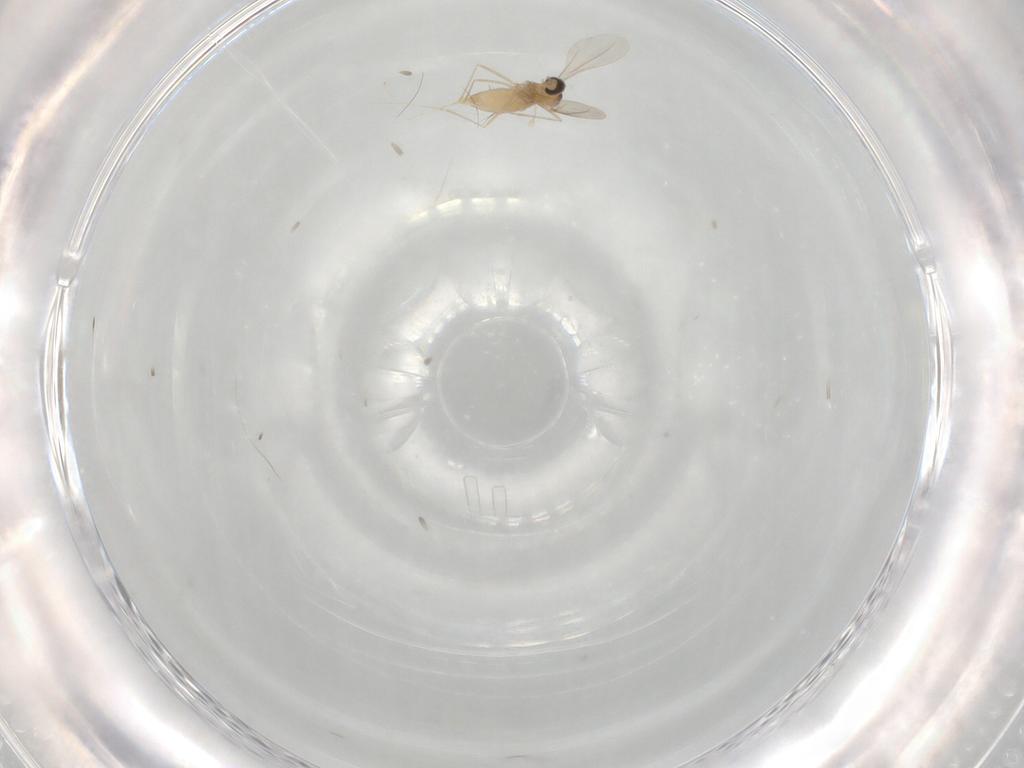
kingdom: Animalia
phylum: Arthropoda
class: Insecta
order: Diptera
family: Cecidomyiidae
